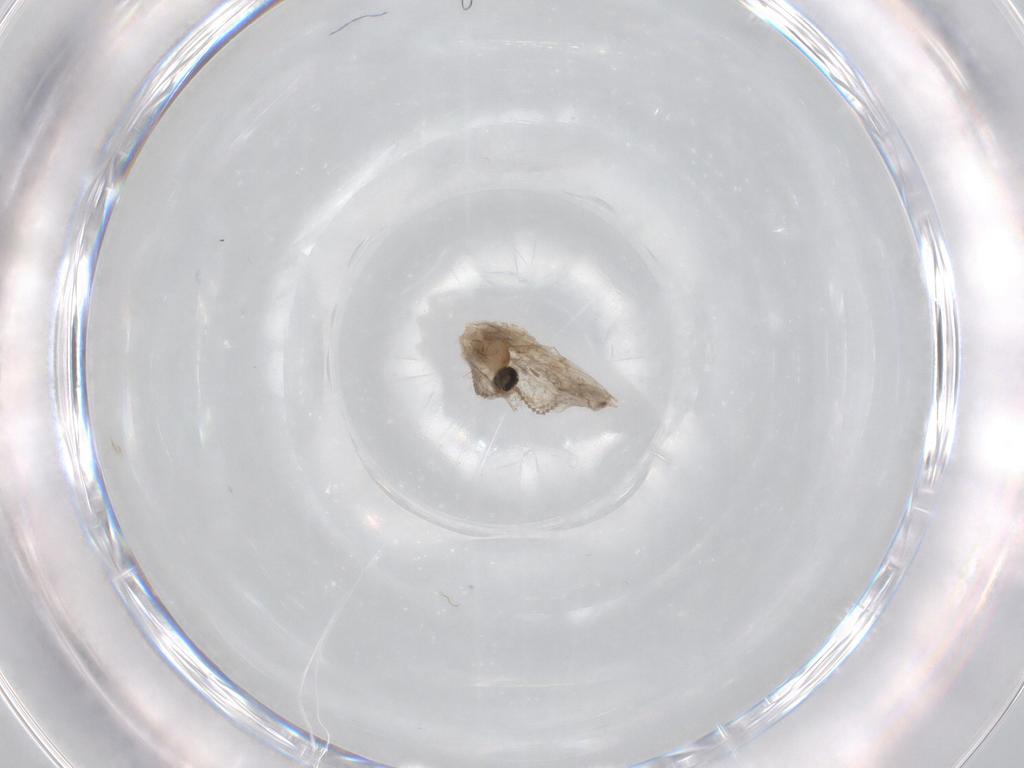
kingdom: Animalia
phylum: Arthropoda
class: Insecta
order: Diptera
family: Cecidomyiidae
